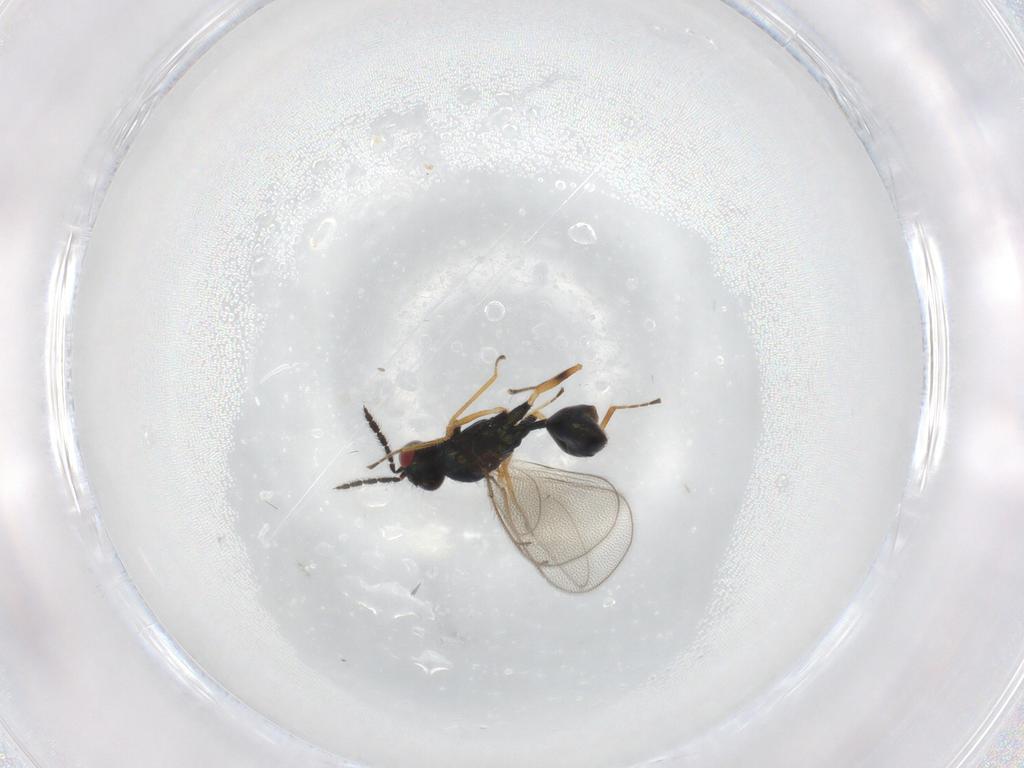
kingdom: Animalia
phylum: Arthropoda
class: Insecta
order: Hymenoptera
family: Eulophidae
